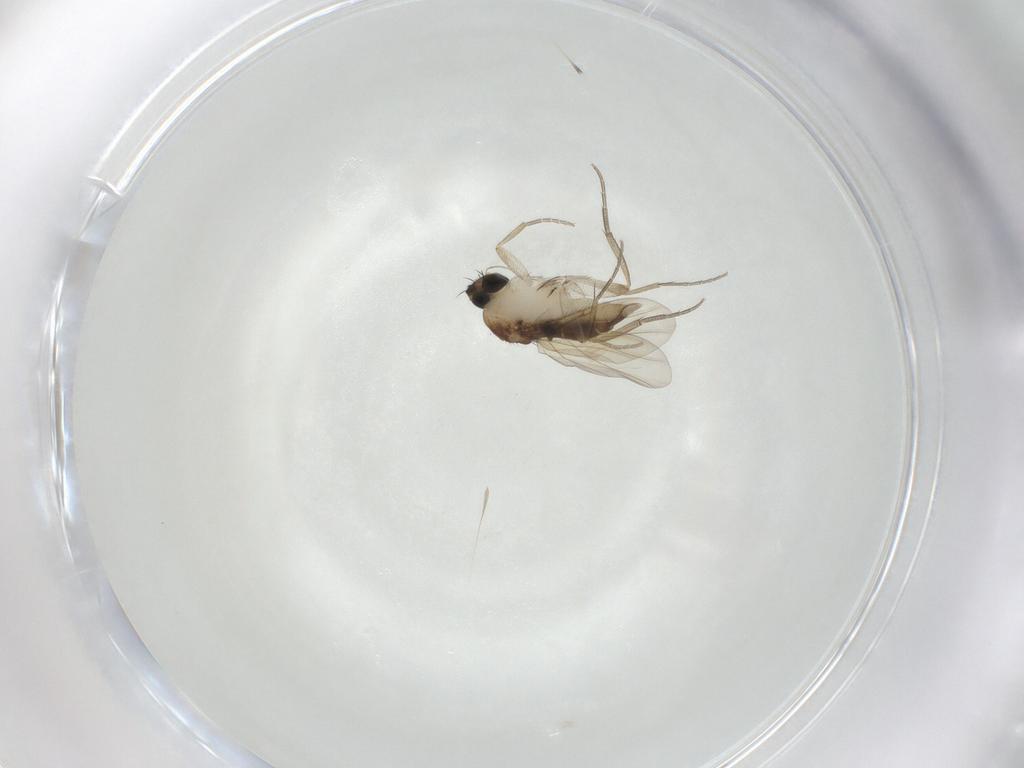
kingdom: Animalia
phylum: Arthropoda
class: Insecta
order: Diptera
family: Phoridae
